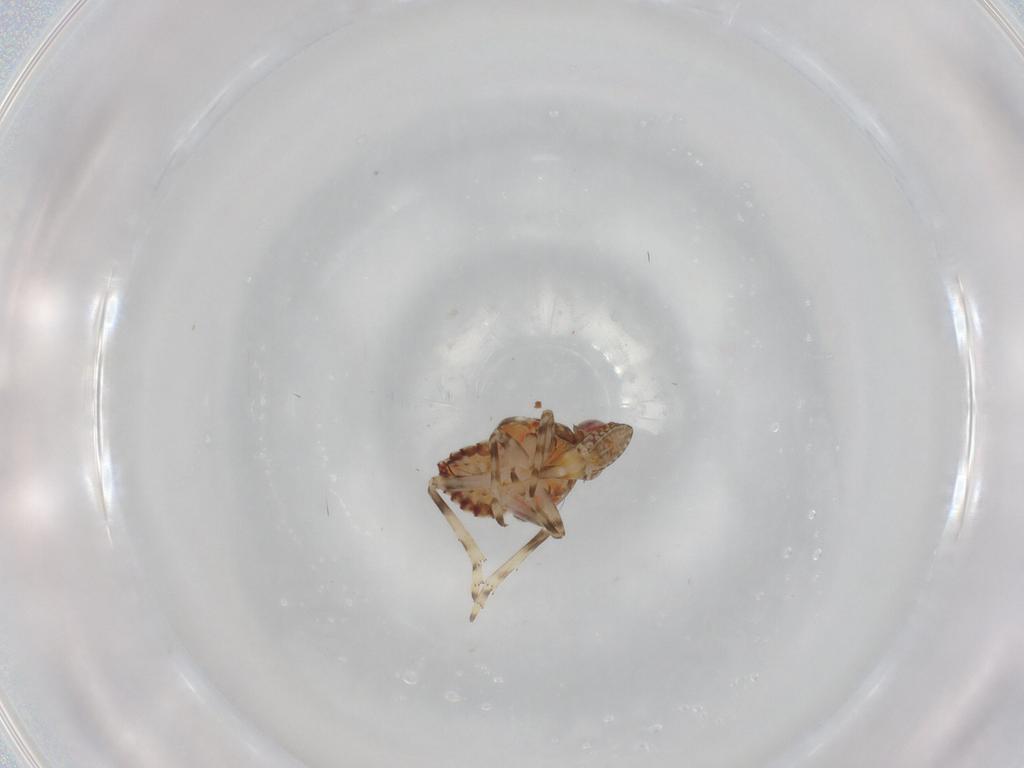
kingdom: Animalia
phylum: Arthropoda
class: Insecta
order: Hemiptera
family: Tropiduchidae
